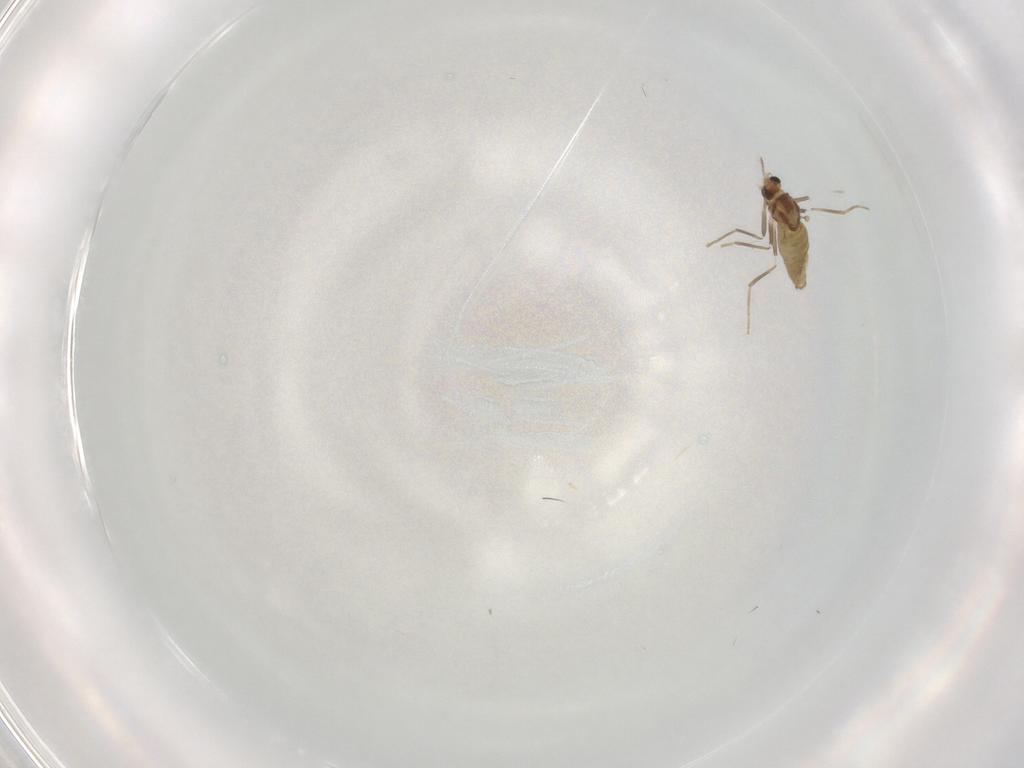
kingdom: Animalia
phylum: Arthropoda
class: Insecta
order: Diptera
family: Chironomidae
